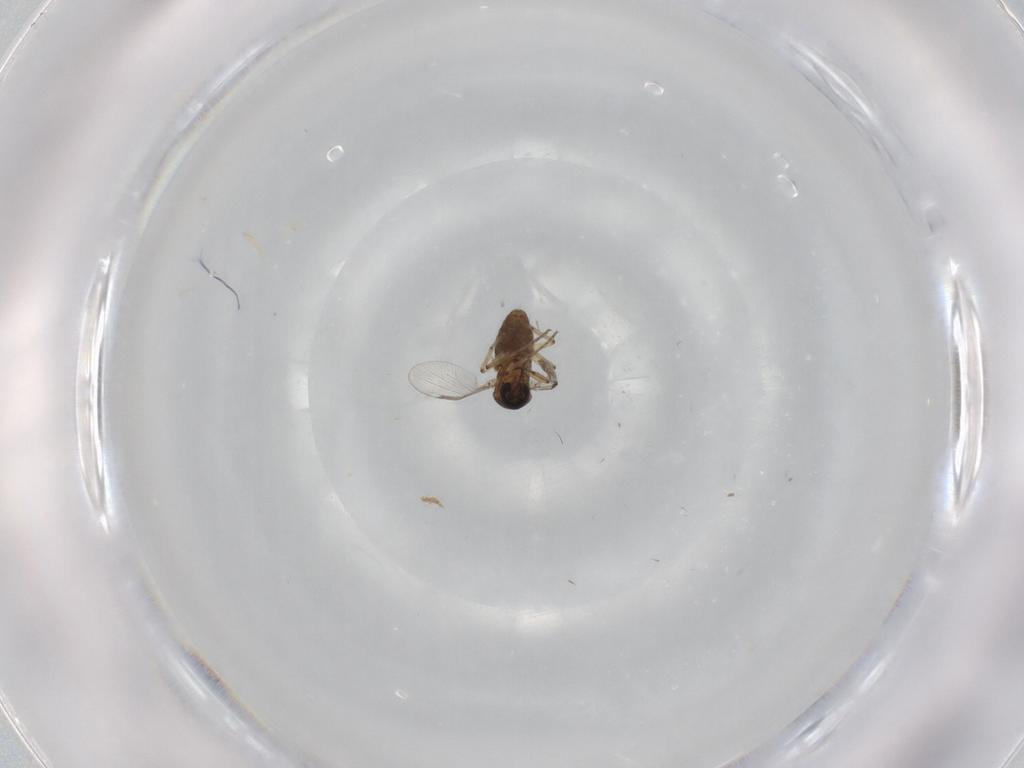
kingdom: Animalia
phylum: Arthropoda
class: Insecta
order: Diptera
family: Ceratopogonidae
